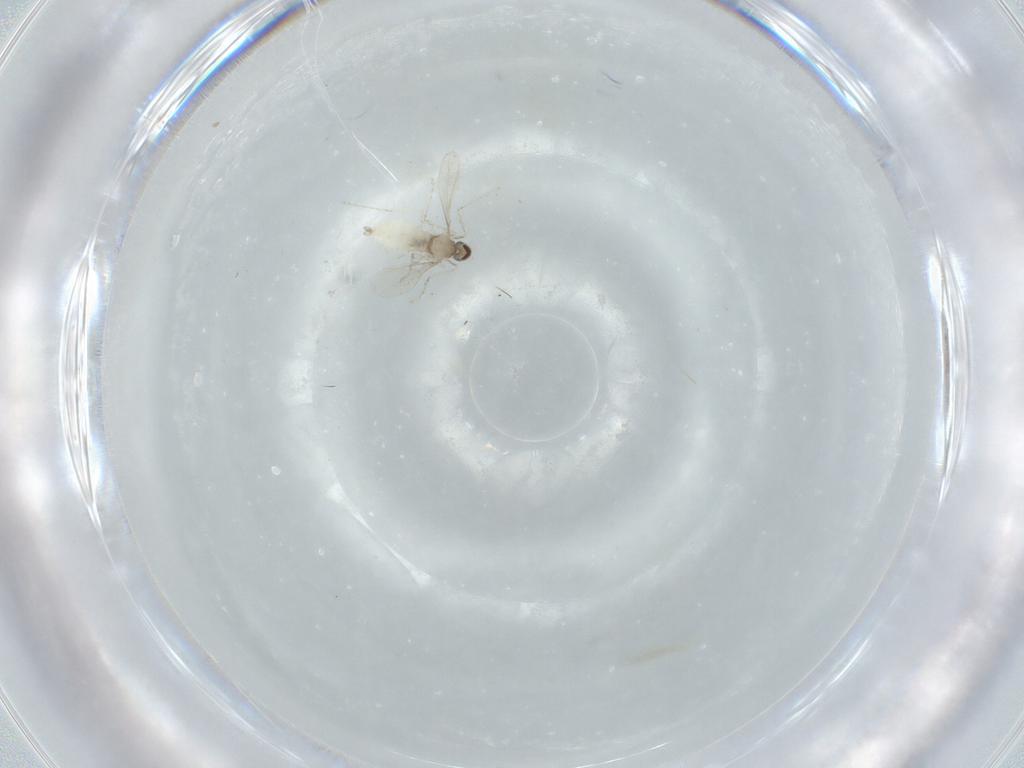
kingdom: Animalia
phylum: Arthropoda
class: Insecta
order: Diptera
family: Cecidomyiidae
